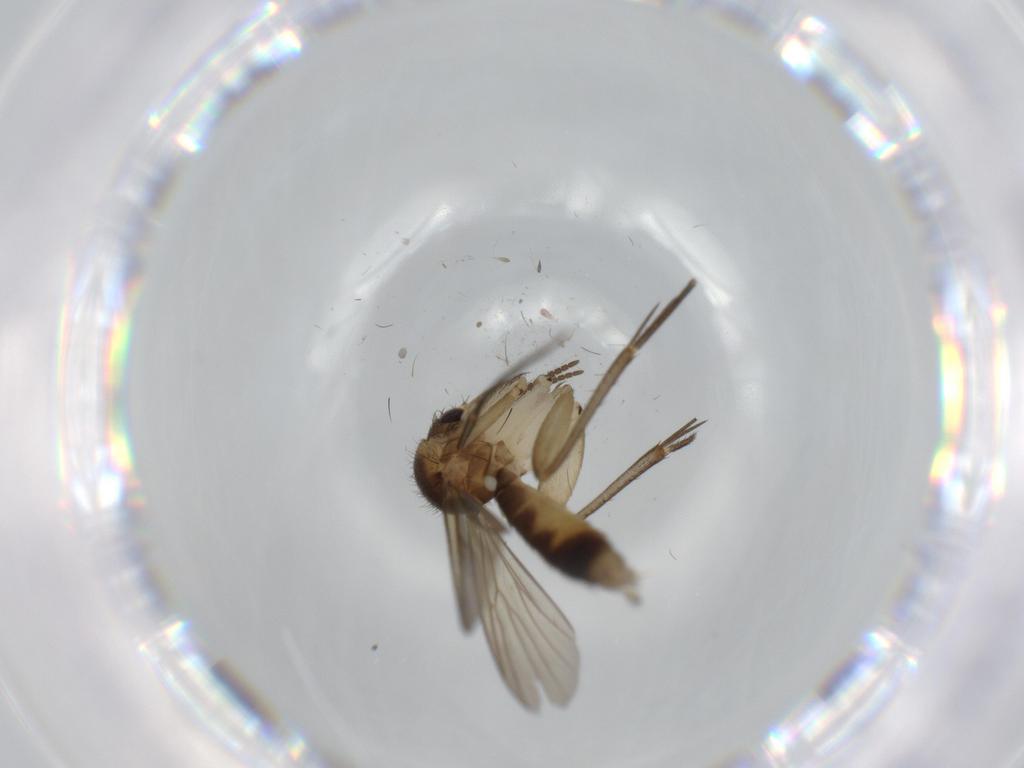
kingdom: Animalia
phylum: Arthropoda
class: Insecta
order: Diptera
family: Mycetophilidae
